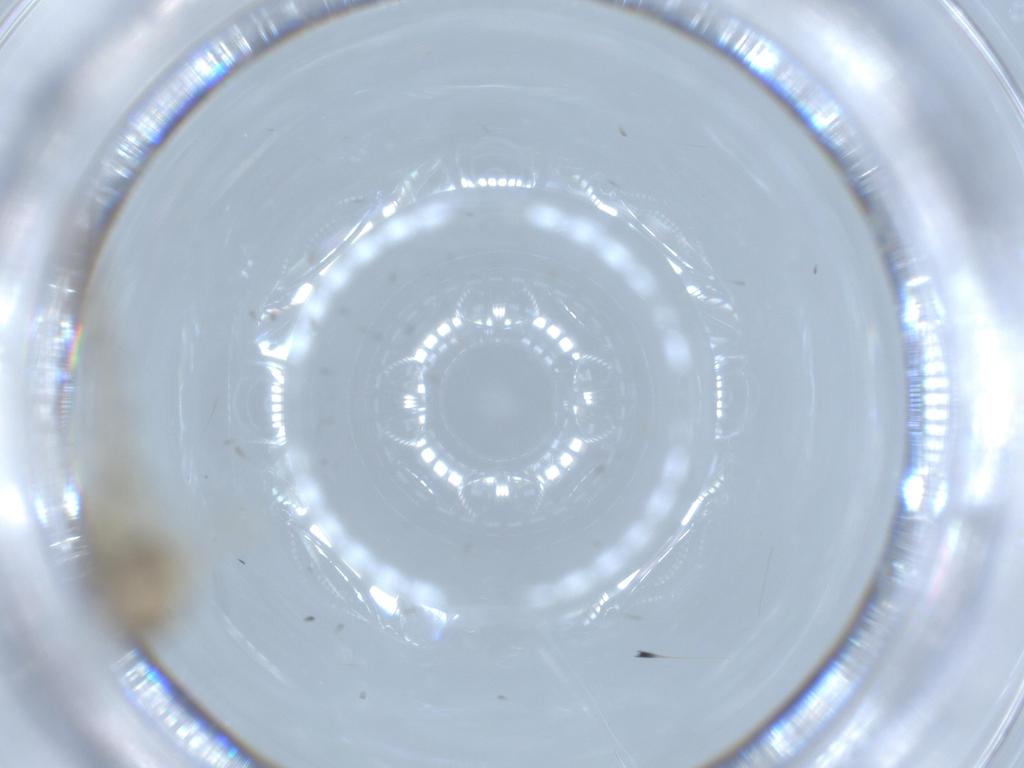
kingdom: Animalia
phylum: Arthropoda
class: Insecta
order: Diptera
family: Chironomidae
